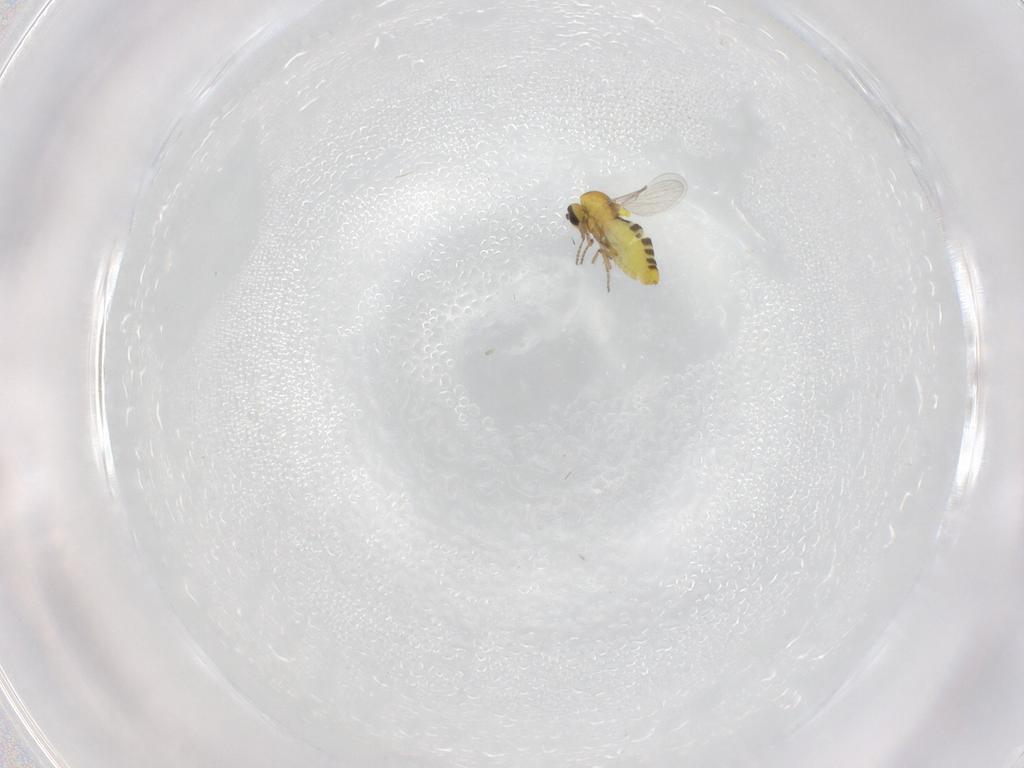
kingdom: Animalia
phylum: Arthropoda
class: Insecta
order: Diptera
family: Ceratopogonidae
